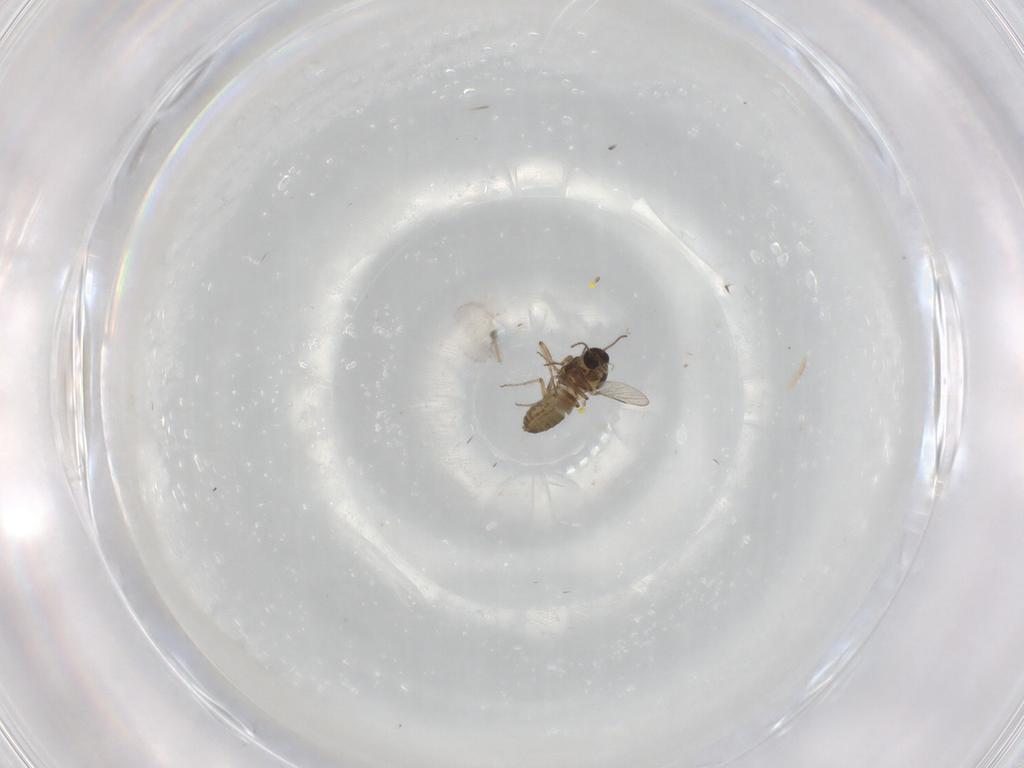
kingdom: Animalia
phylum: Arthropoda
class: Insecta
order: Diptera
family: Ceratopogonidae
